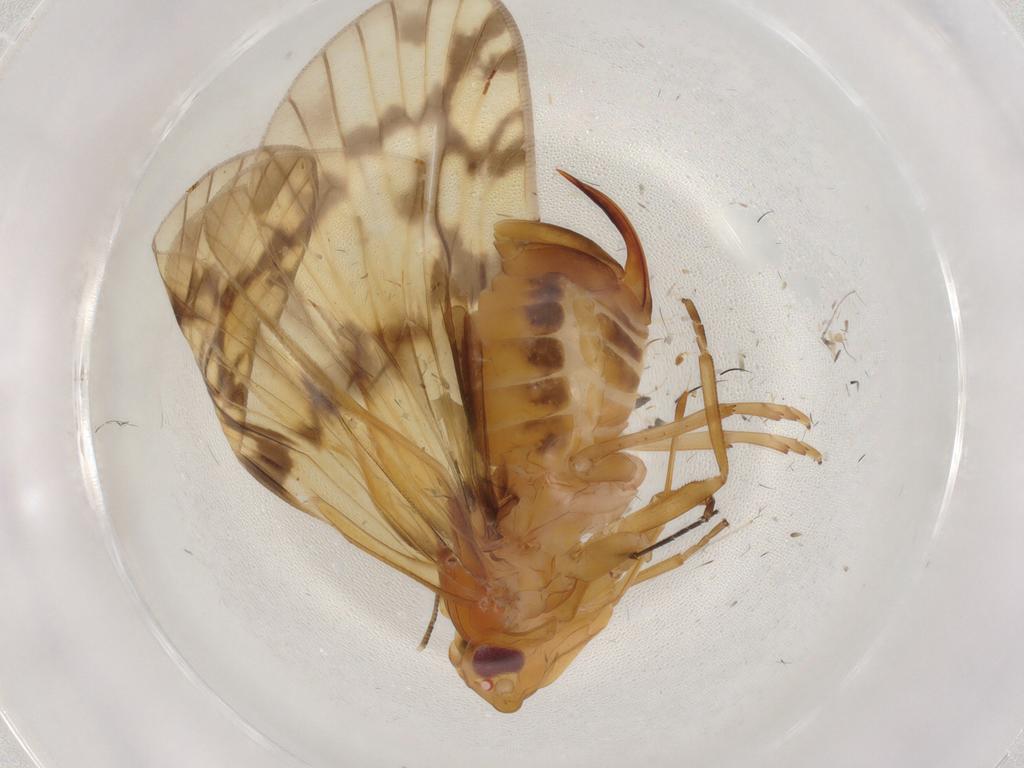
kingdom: Animalia
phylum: Arthropoda
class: Insecta
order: Hemiptera
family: Cixiidae
